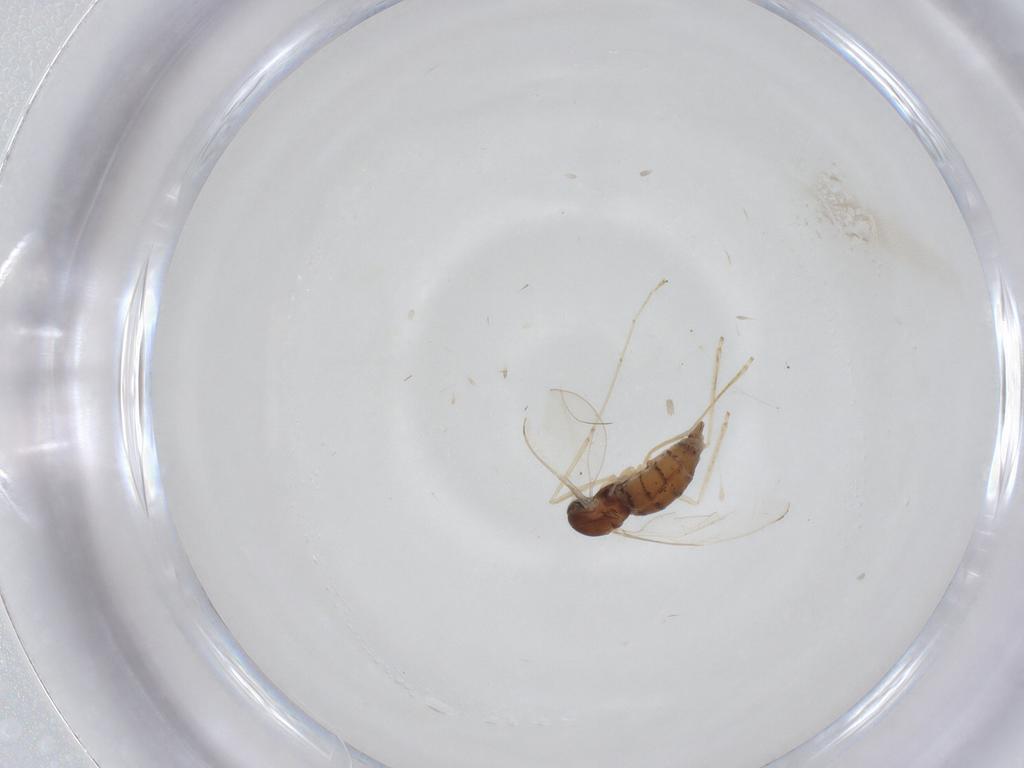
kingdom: Animalia
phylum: Arthropoda
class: Insecta
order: Diptera
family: Cecidomyiidae
